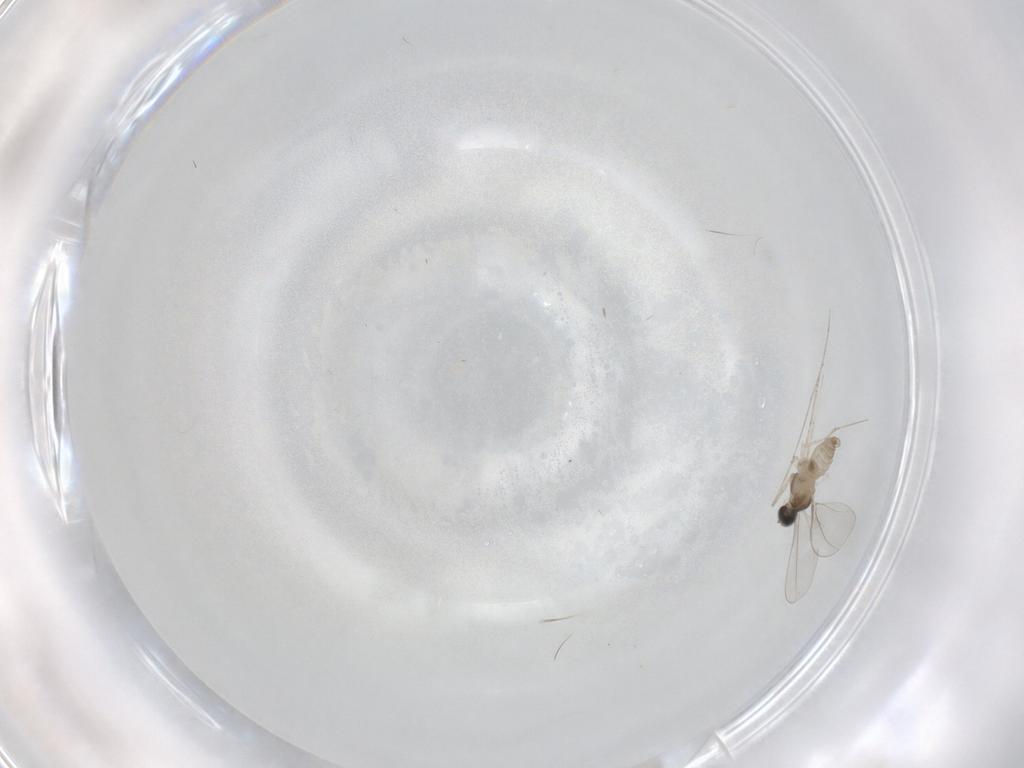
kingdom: Animalia
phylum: Arthropoda
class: Insecta
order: Diptera
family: Cecidomyiidae
